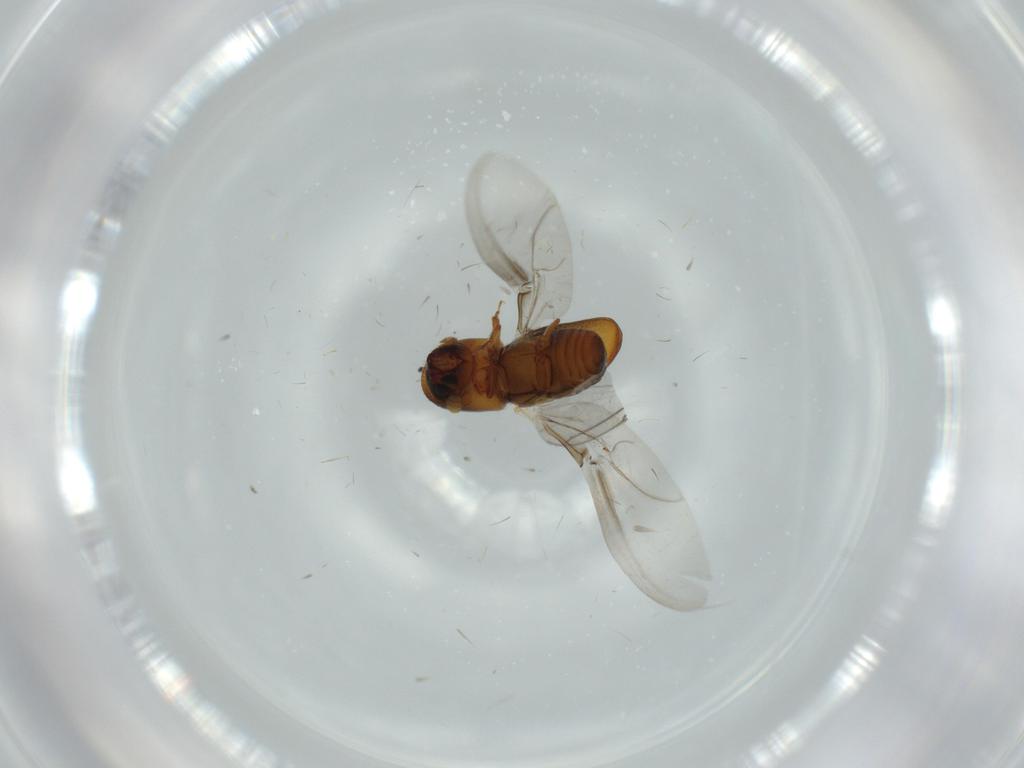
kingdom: Animalia
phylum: Arthropoda
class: Insecta
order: Coleoptera
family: Curculionidae
